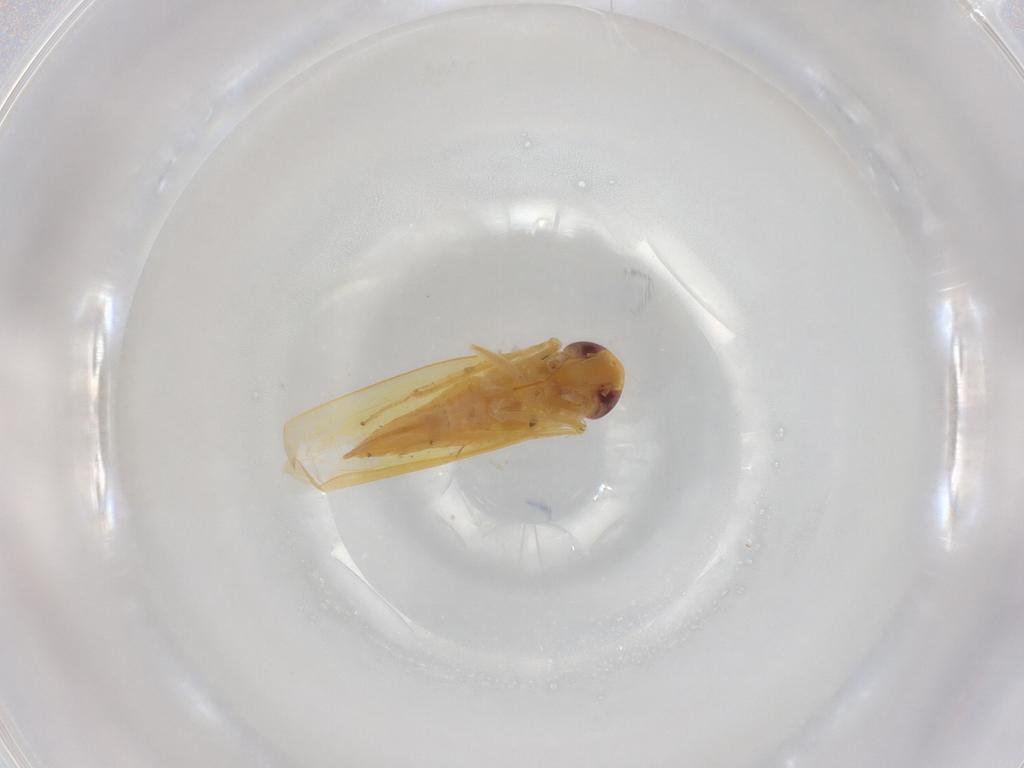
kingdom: Animalia
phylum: Arthropoda
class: Insecta
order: Hemiptera
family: Cicadellidae
